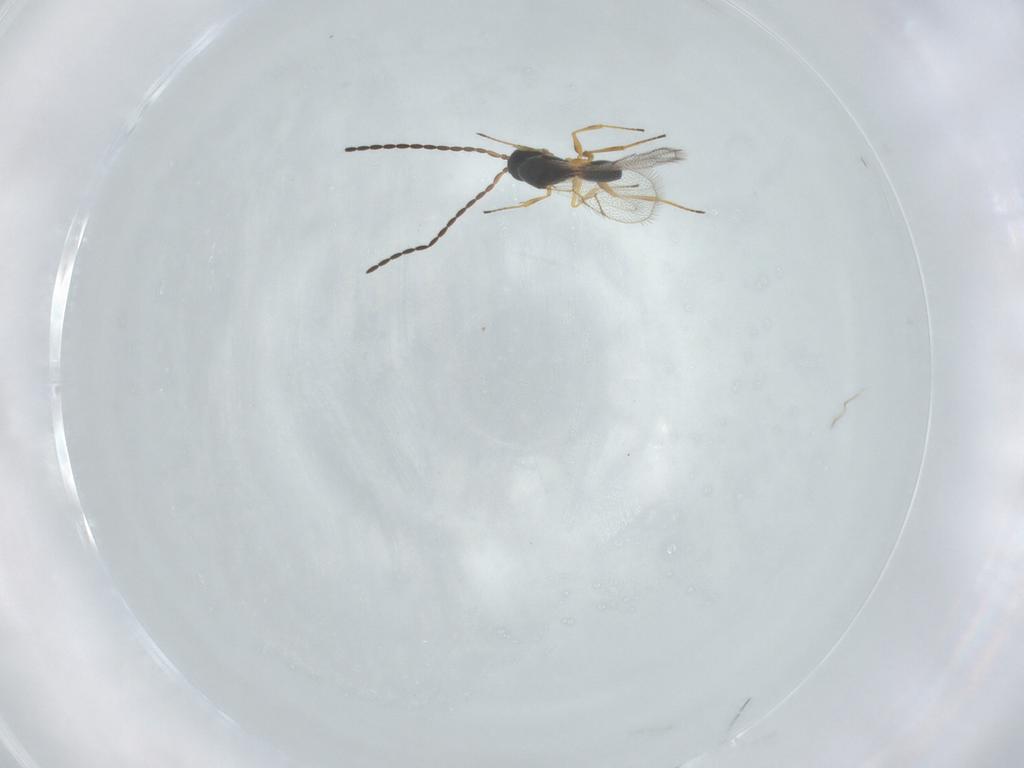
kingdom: Animalia
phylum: Arthropoda
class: Insecta
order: Hymenoptera
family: Figitidae
